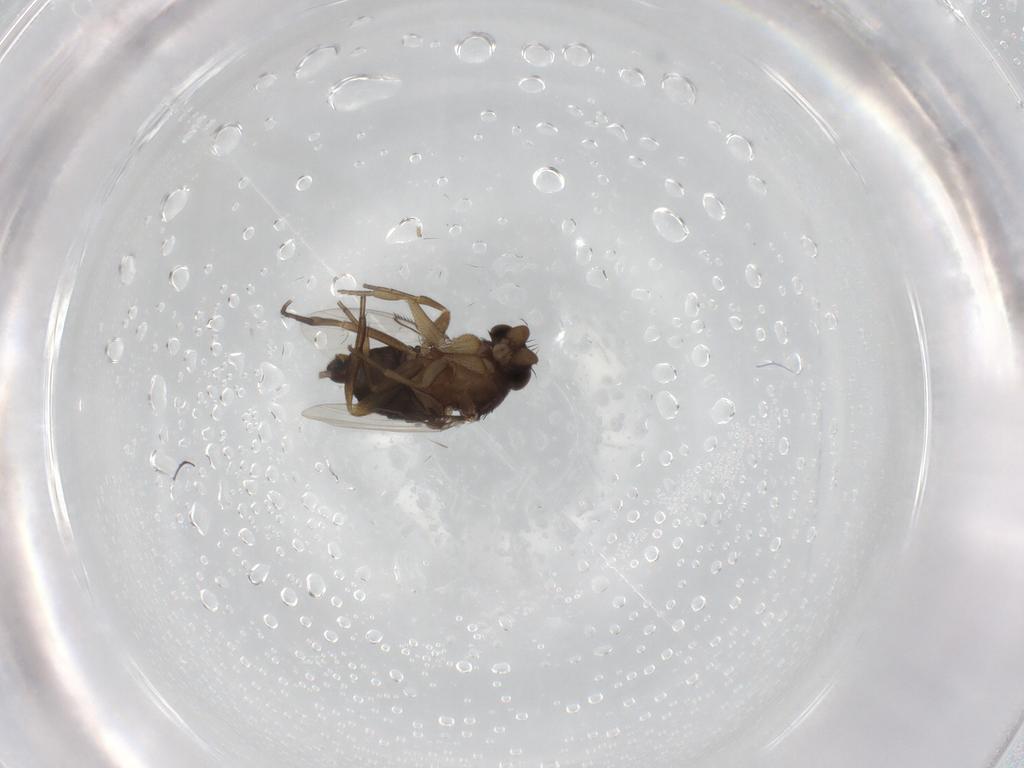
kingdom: Animalia
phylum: Arthropoda
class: Insecta
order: Diptera
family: Phoridae
